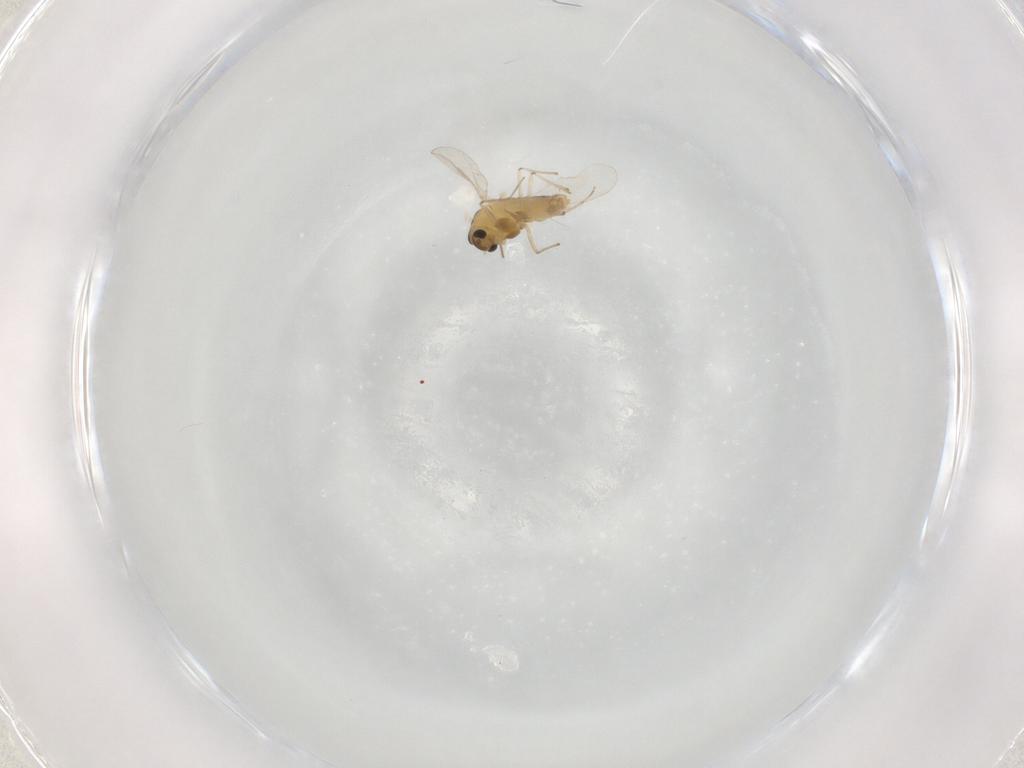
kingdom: Animalia
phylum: Arthropoda
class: Insecta
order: Diptera
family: Chironomidae
